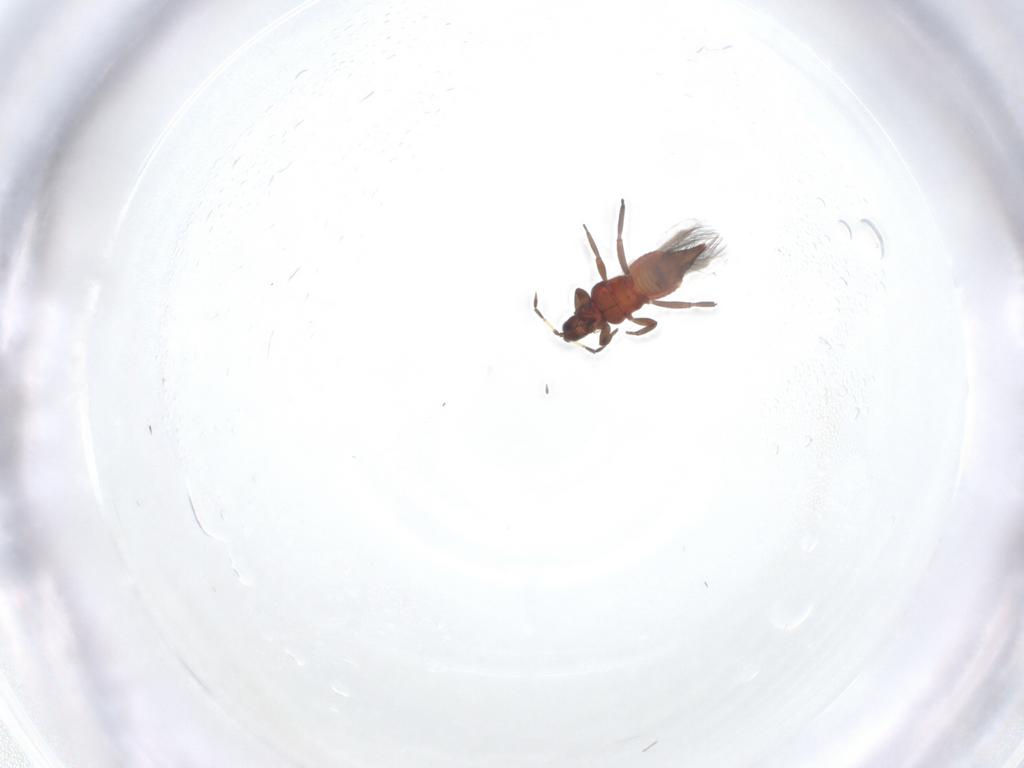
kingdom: Animalia
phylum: Arthropoda
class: Insecta
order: Thysanoptera
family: Aeolothripidae
